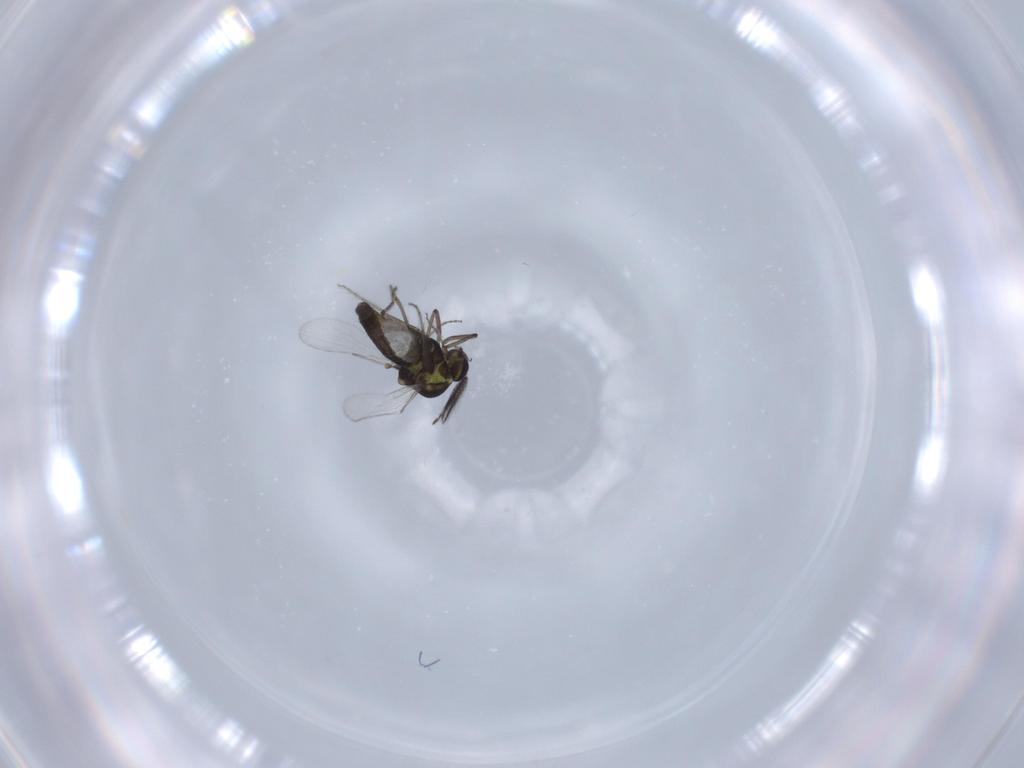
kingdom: Animalia
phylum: Arthropoda
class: Insecta
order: Diptera
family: Ceratopogonidae
